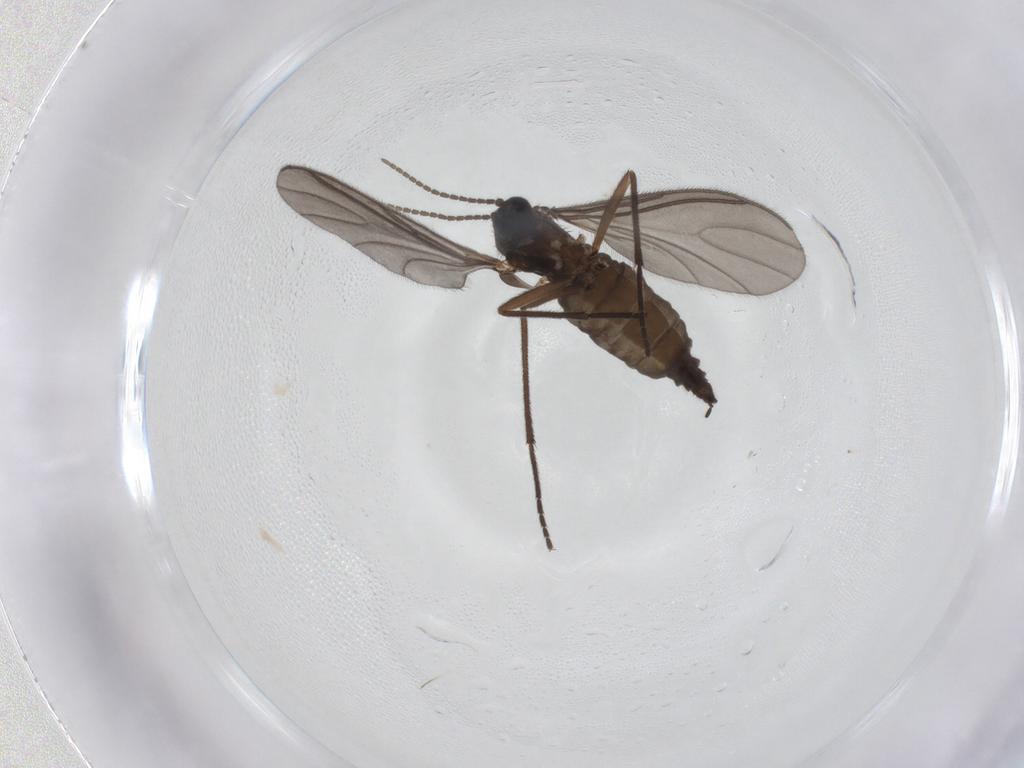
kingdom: Animalia
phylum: Arthropoda
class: Insecta
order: Diptera
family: Sciaridae
